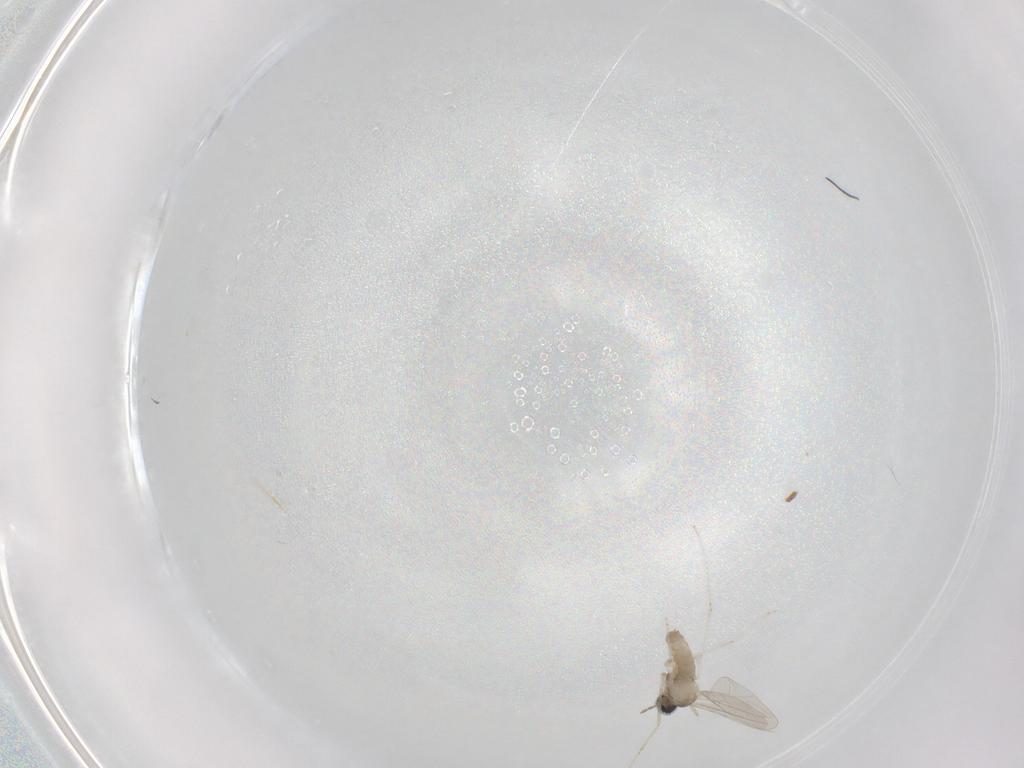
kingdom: Animalia
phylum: Arthropoda
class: Insecta
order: Diptera
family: Cecidomyiidae
